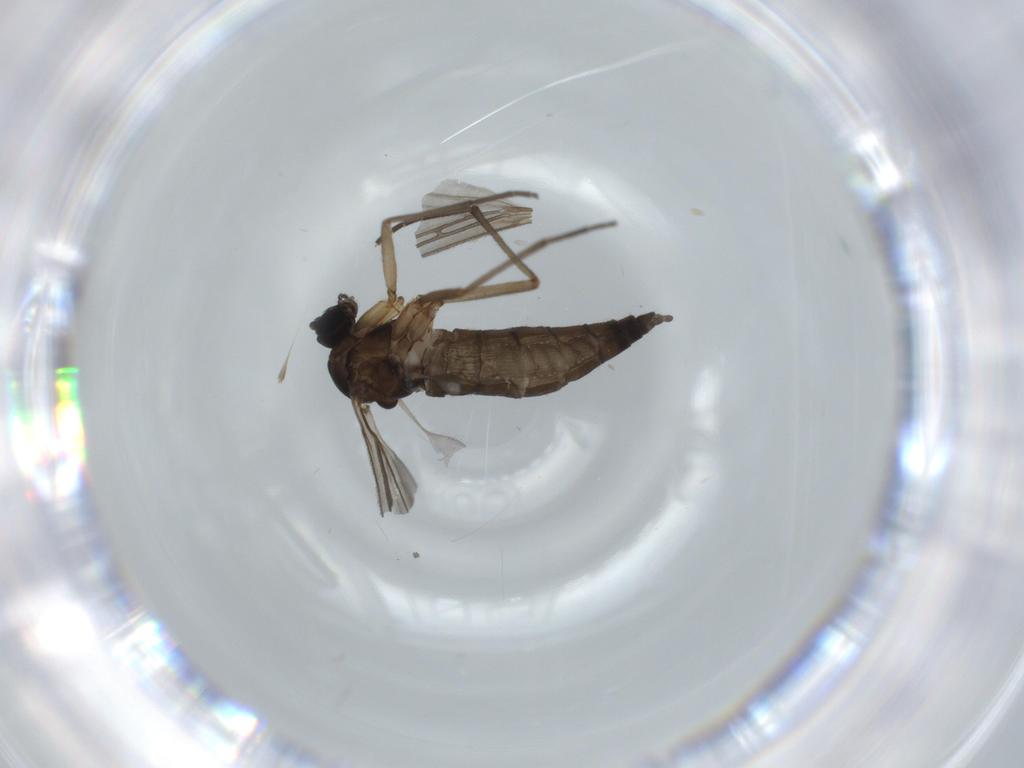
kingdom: Animalia
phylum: Arthropoda
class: Insecta
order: Diptera
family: Sciaridae
